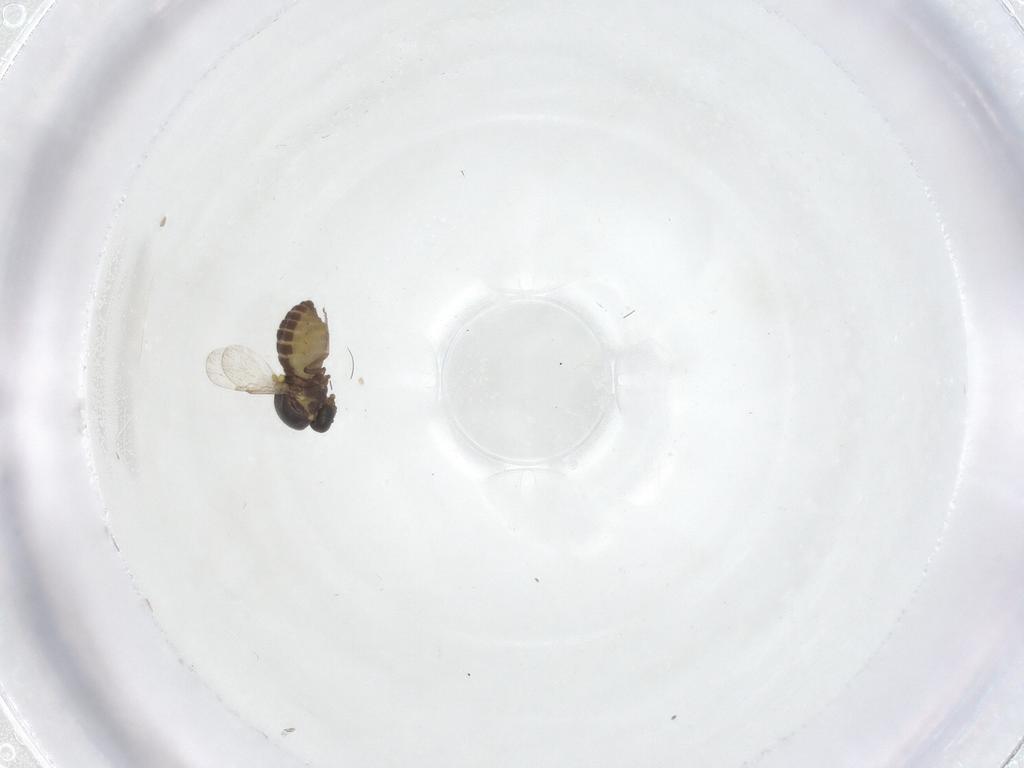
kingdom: Animalia
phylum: Arthropoda
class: Insecta
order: Diptera
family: Ceratopogonidae
